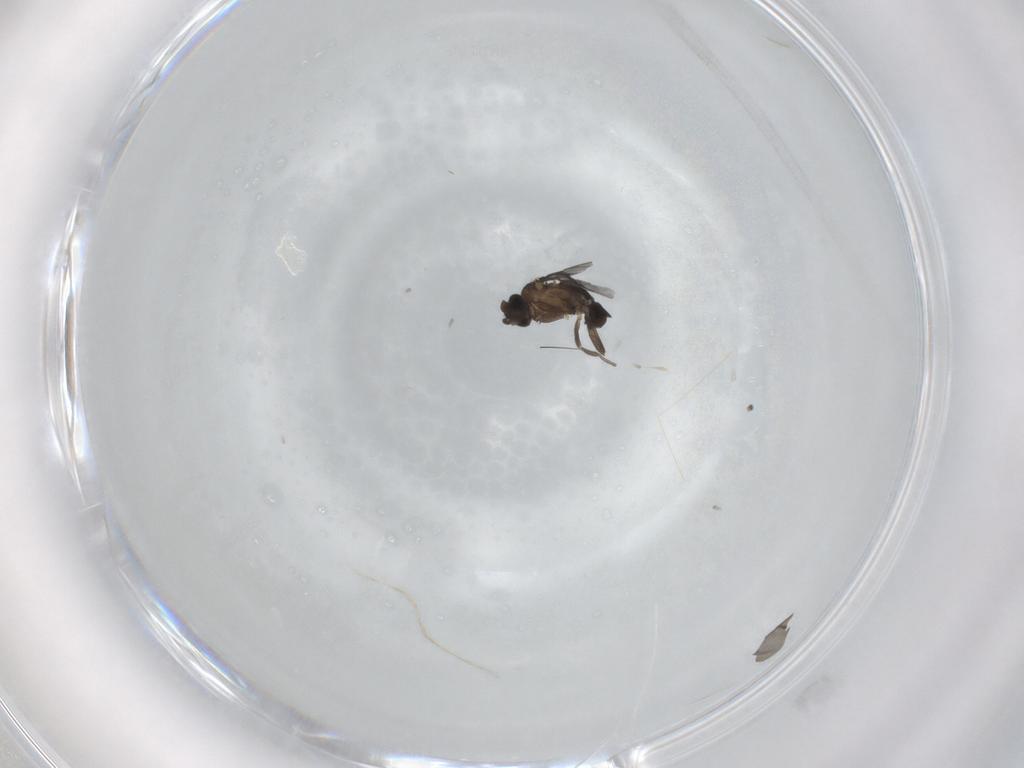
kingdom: Animalia
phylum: Arthropoda
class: Insecta
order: Diptera
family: Phoridae
